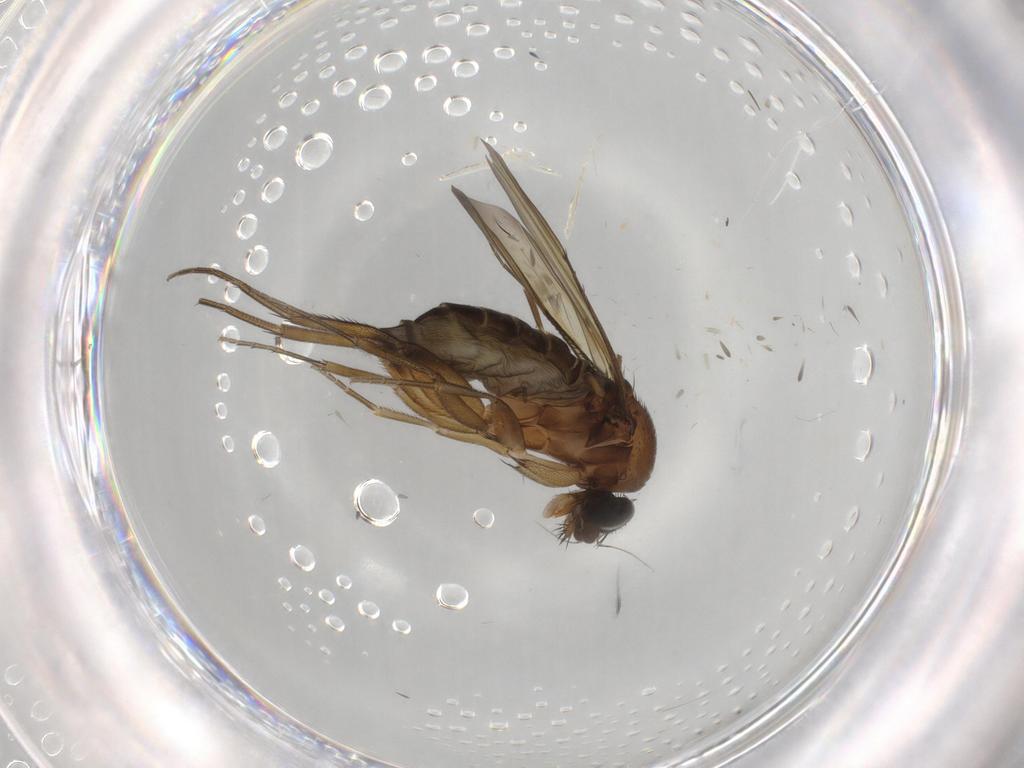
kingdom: Animalia
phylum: Arthropoda
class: Insecta
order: Diptera
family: Phoridae
